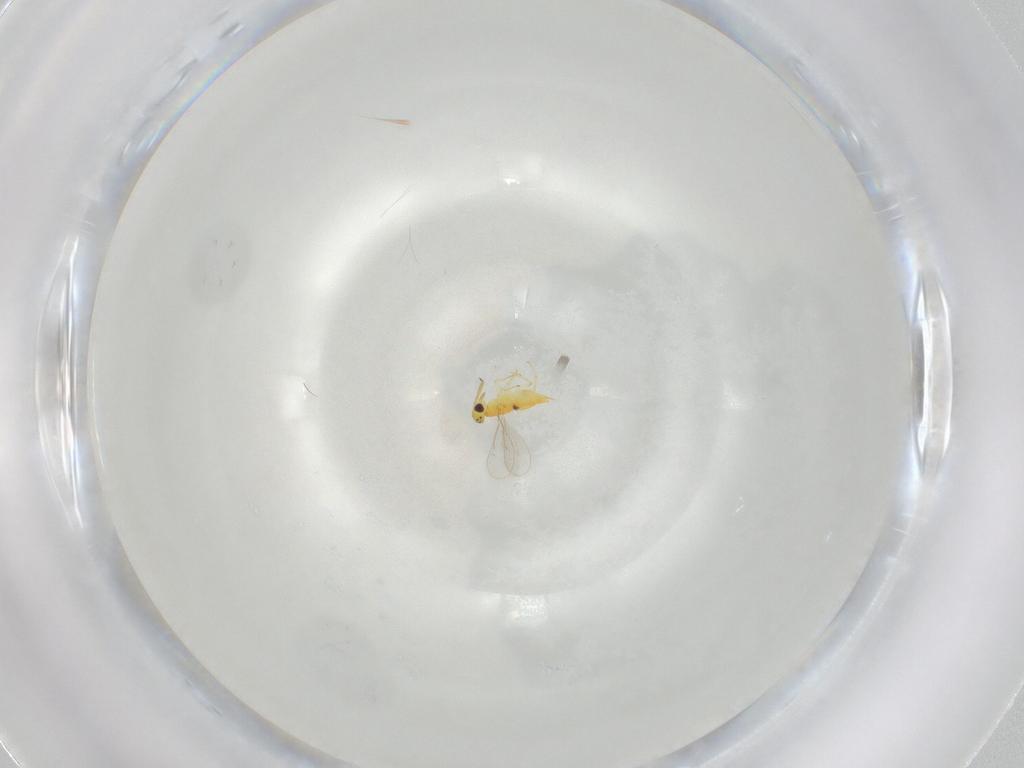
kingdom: Animalia
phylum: Arthropoda
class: Insecta
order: Hymenoptera
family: Aphelinidae
